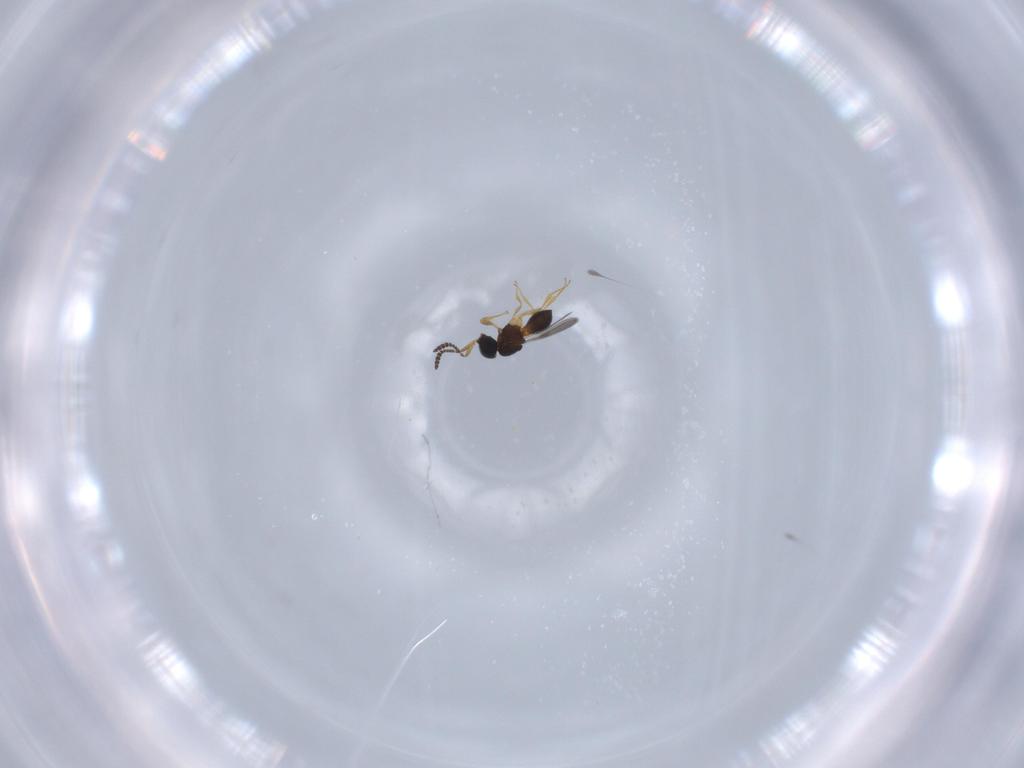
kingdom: Animalia
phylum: Arthropoda
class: Insecta
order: Hymenoptera
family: Scelionidae
